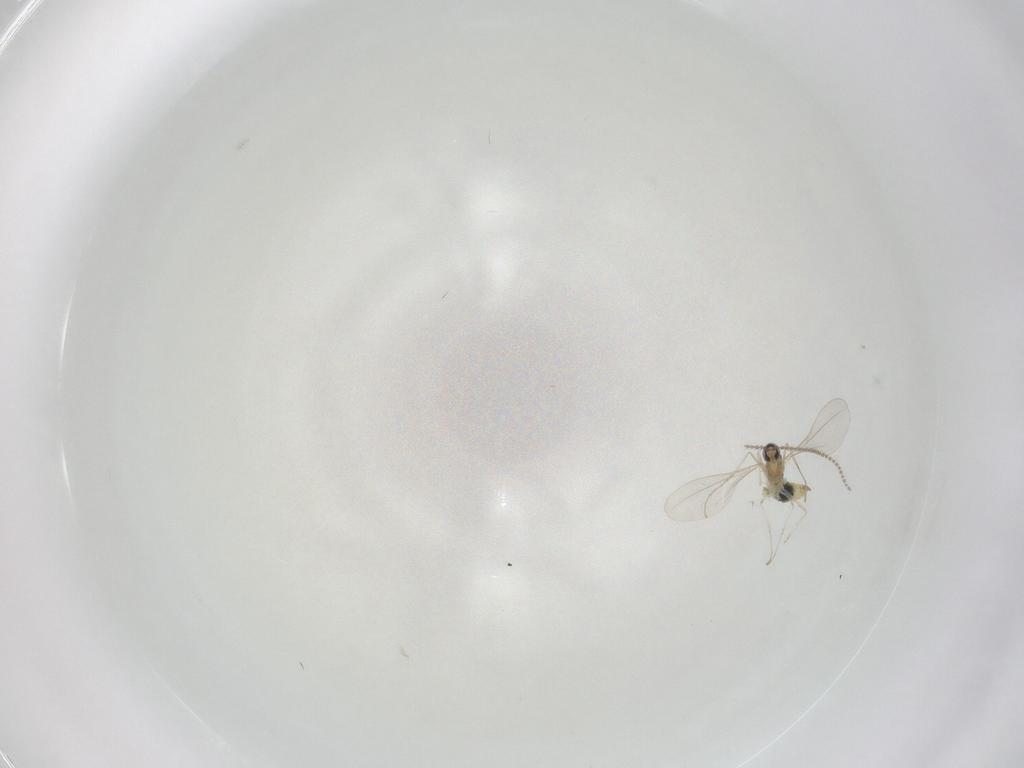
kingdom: Animalia
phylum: Arthropoda
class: Insecta
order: Diptera
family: Cecidomyiidae
